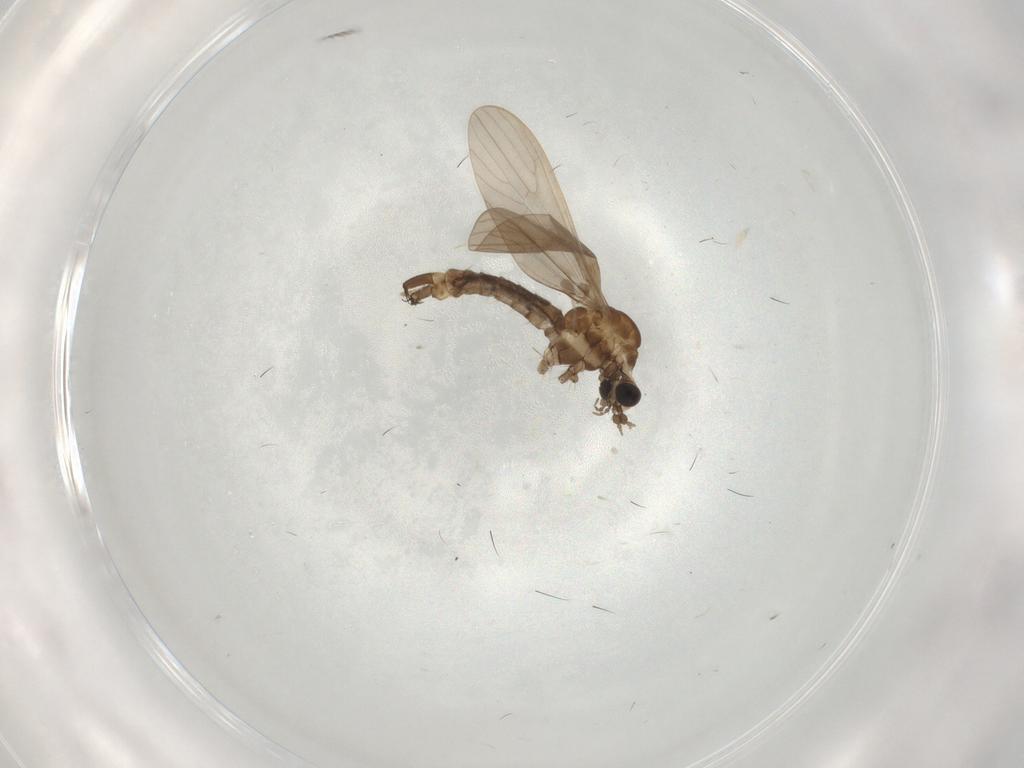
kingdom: Animalia
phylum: Arthropoda
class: Insecta
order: Diptera
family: Limoniidae
